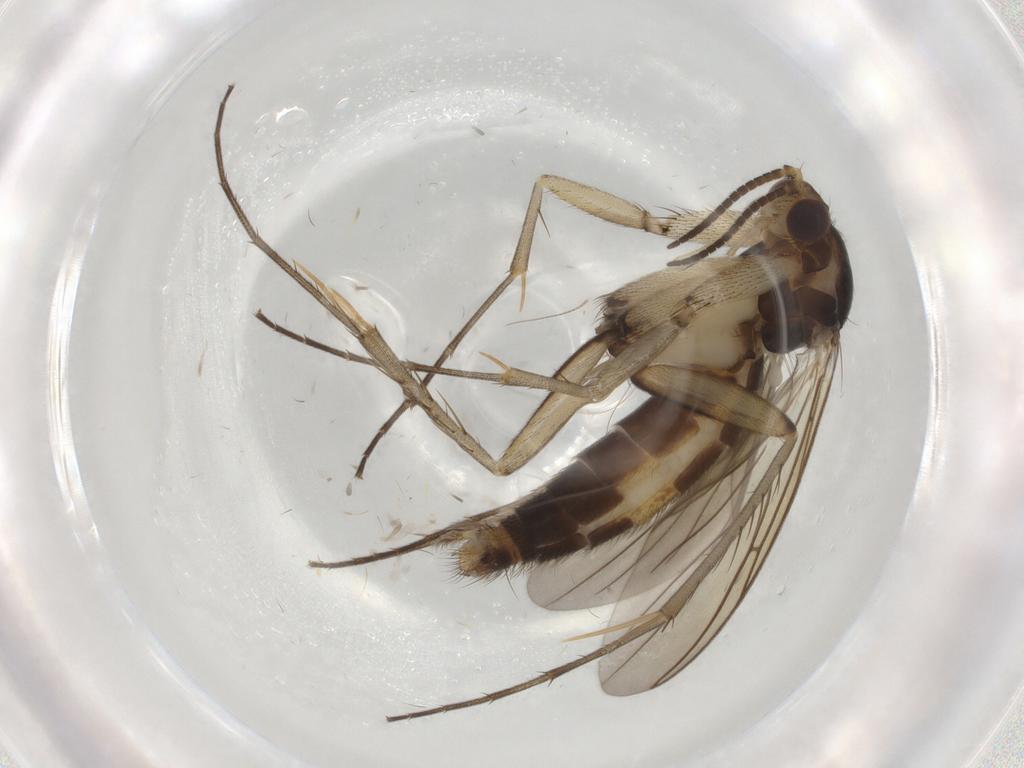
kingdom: Animalia
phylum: Arthropoda
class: Insecta
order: Diptera
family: Mycetophilidae
